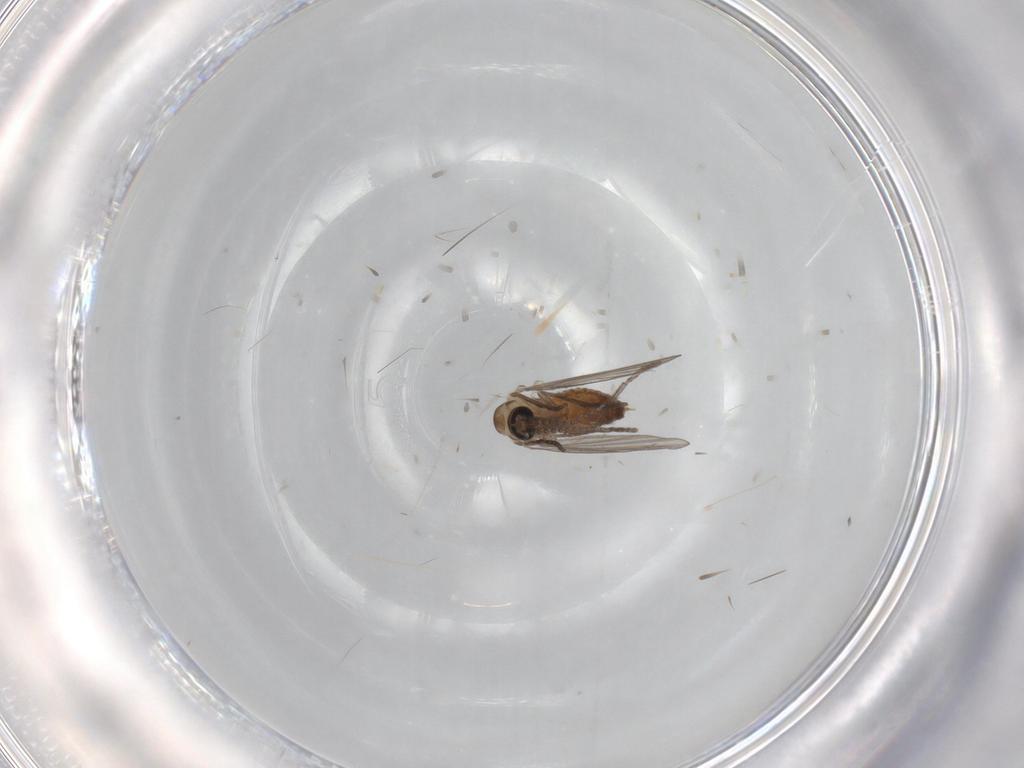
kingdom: Animalia
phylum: Arthropoda
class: Insecta
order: Diptera
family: Psychodidae
